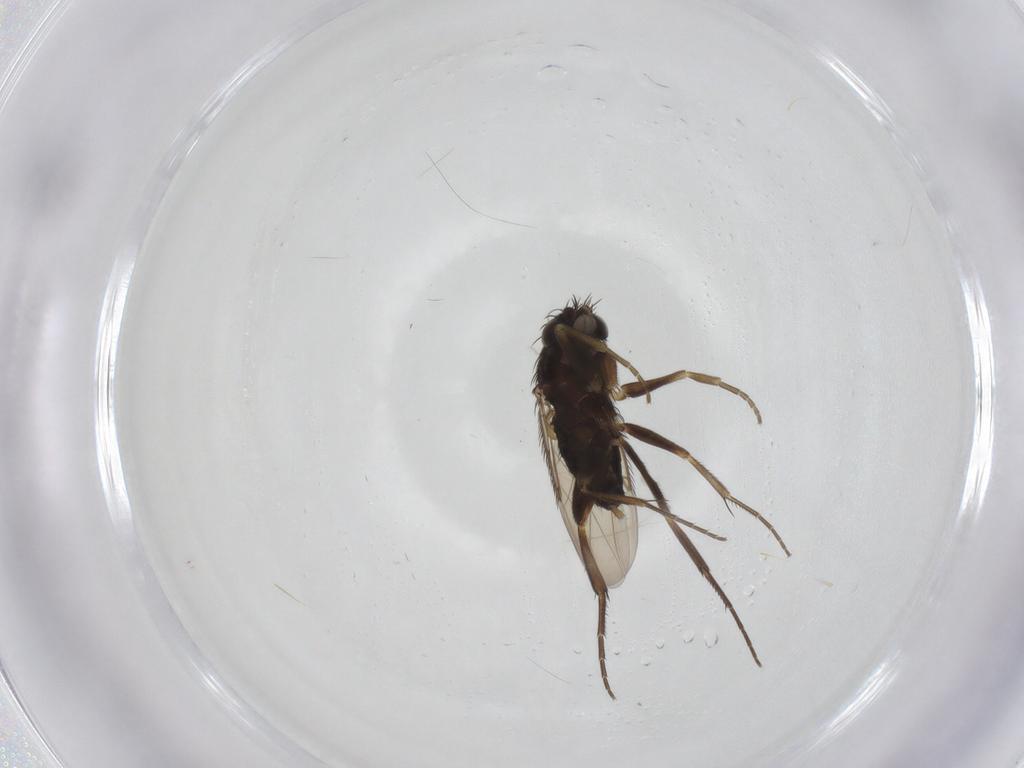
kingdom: Animalia
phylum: Arthropoda
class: Insecta
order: Diptera
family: Phoridae
